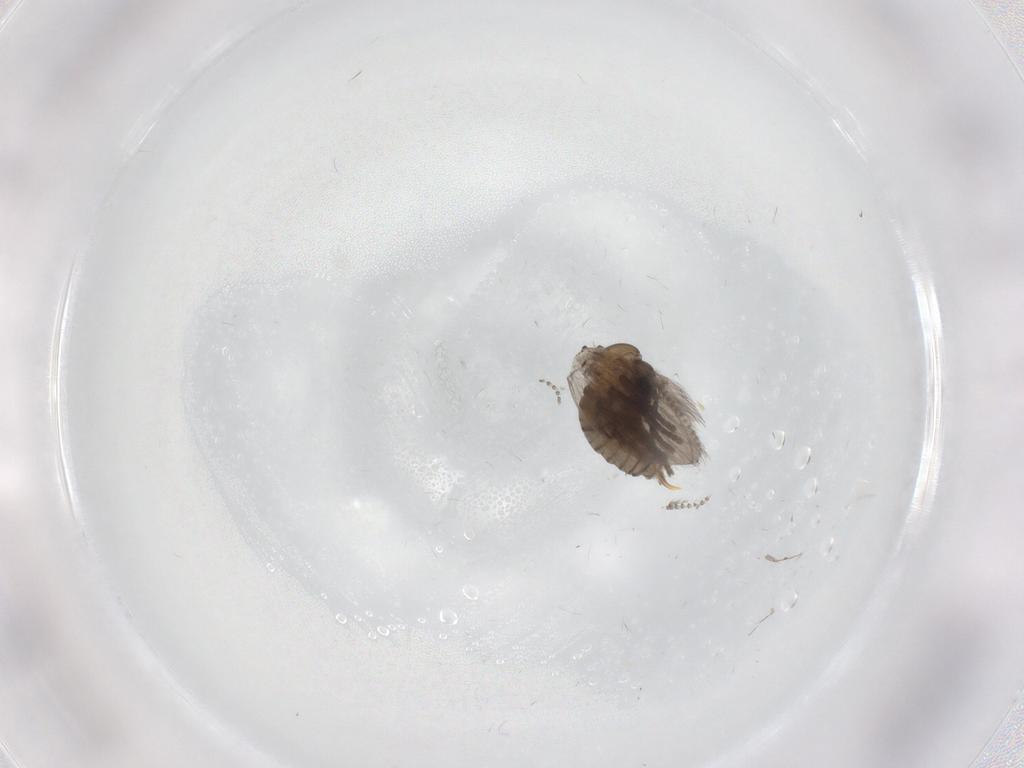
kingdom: Animalia
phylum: Arthropoda
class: Insecta
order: Diptera
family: Psychodidae
